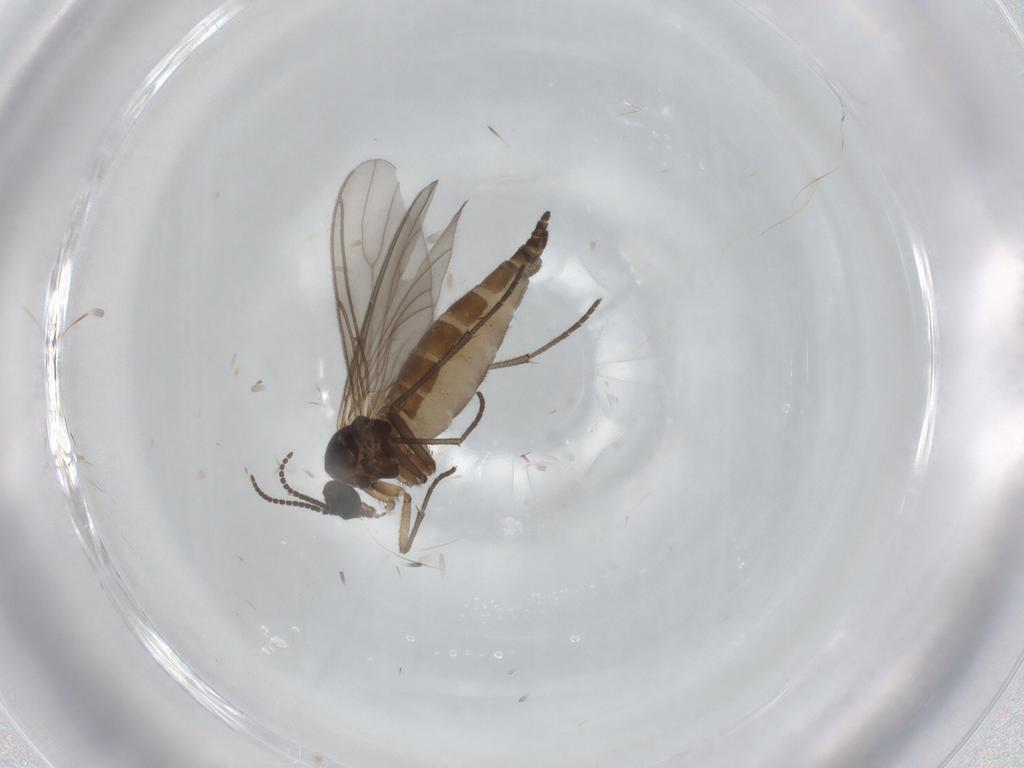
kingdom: Animalia
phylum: Arthropoda
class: Insecta
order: Diptera
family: Sciaridae
